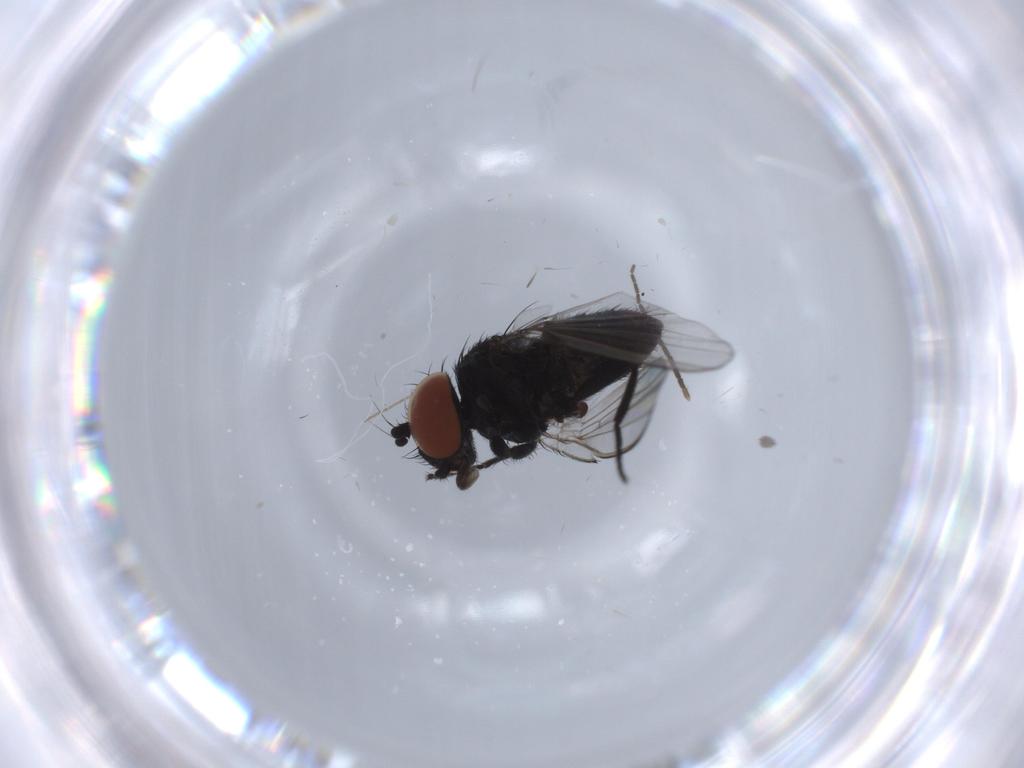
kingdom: Animalia
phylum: Arthropoda
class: Insecta
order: Diptera
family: Milichiidae
